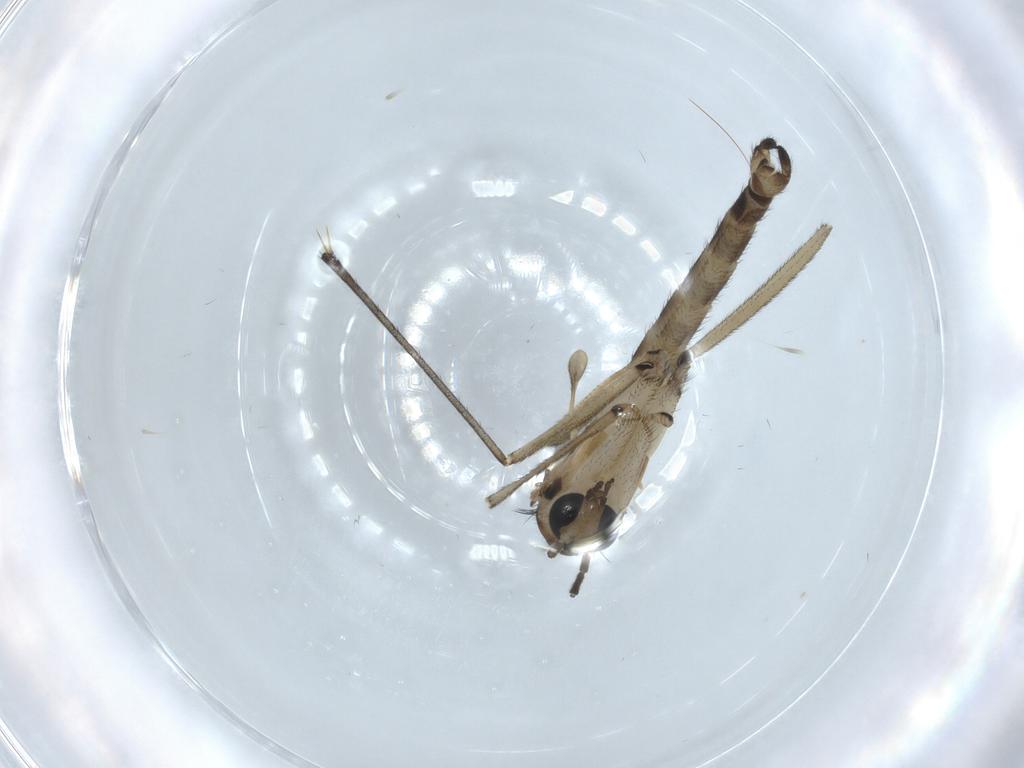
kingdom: Animalia
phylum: Arthropoda
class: Insecta
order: Diptera
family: Sciaridae
